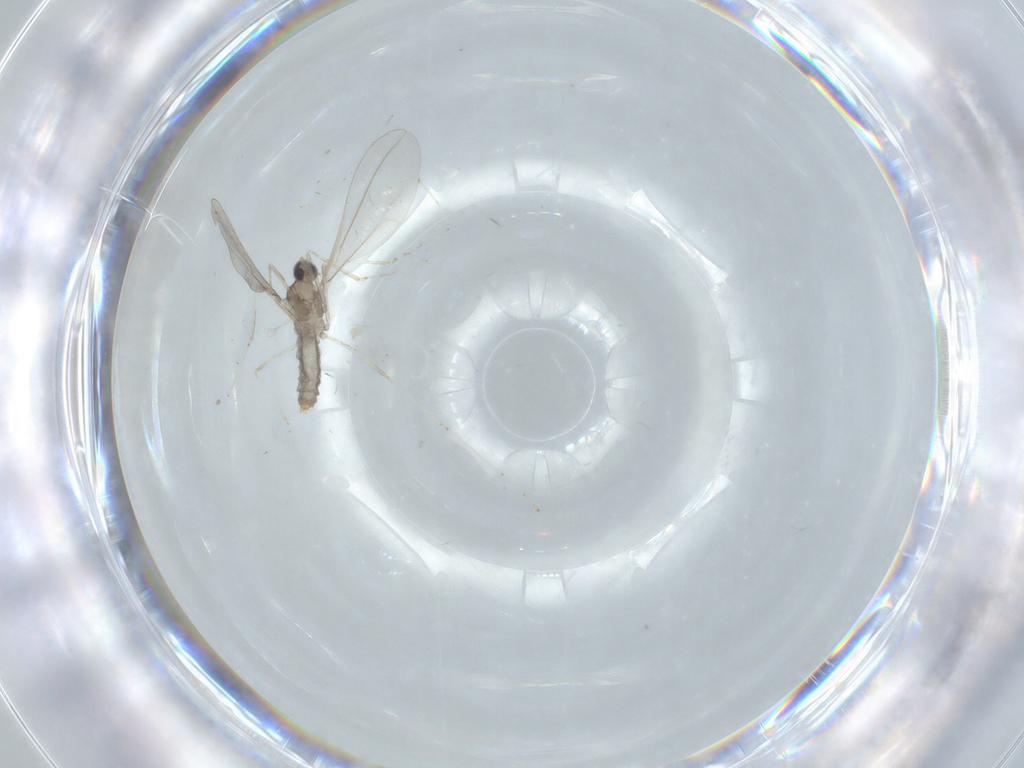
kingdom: Animalia
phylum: Arthropoda
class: Insecta
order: Diptera
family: Cecidomyiidae
